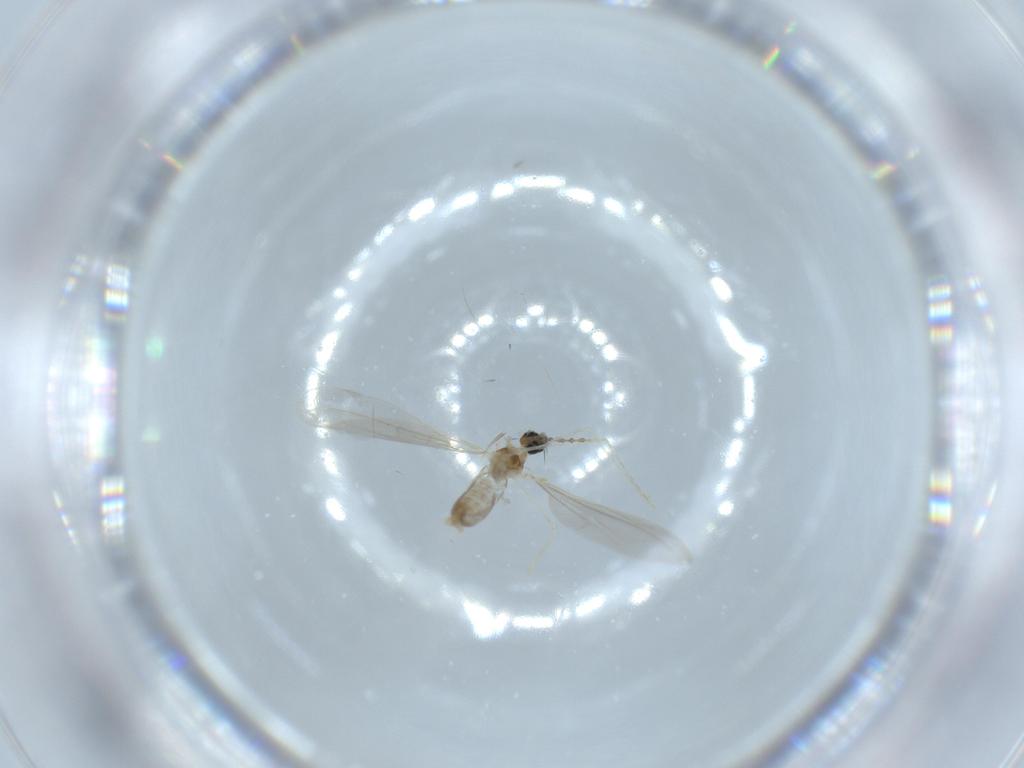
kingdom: Animalia
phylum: Arthropoda
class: Insecta
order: Diptera
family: Cecidomyiidae
